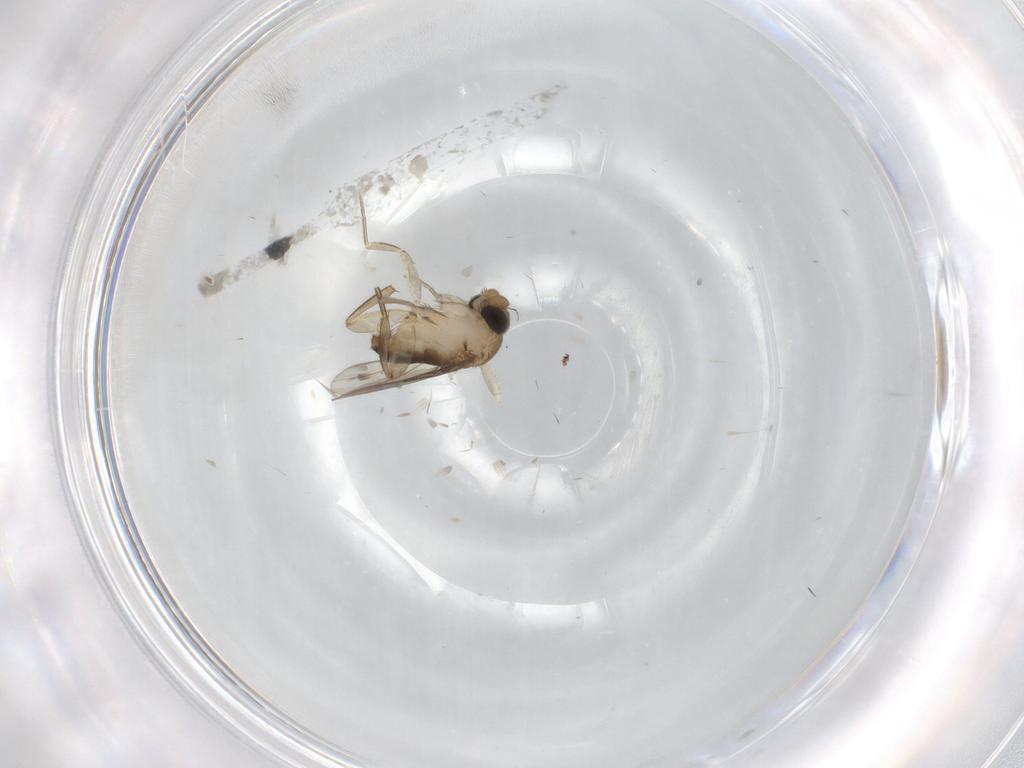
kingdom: Animalia
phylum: Arthropoda
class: Insecta
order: Diptera
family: Phoridae
